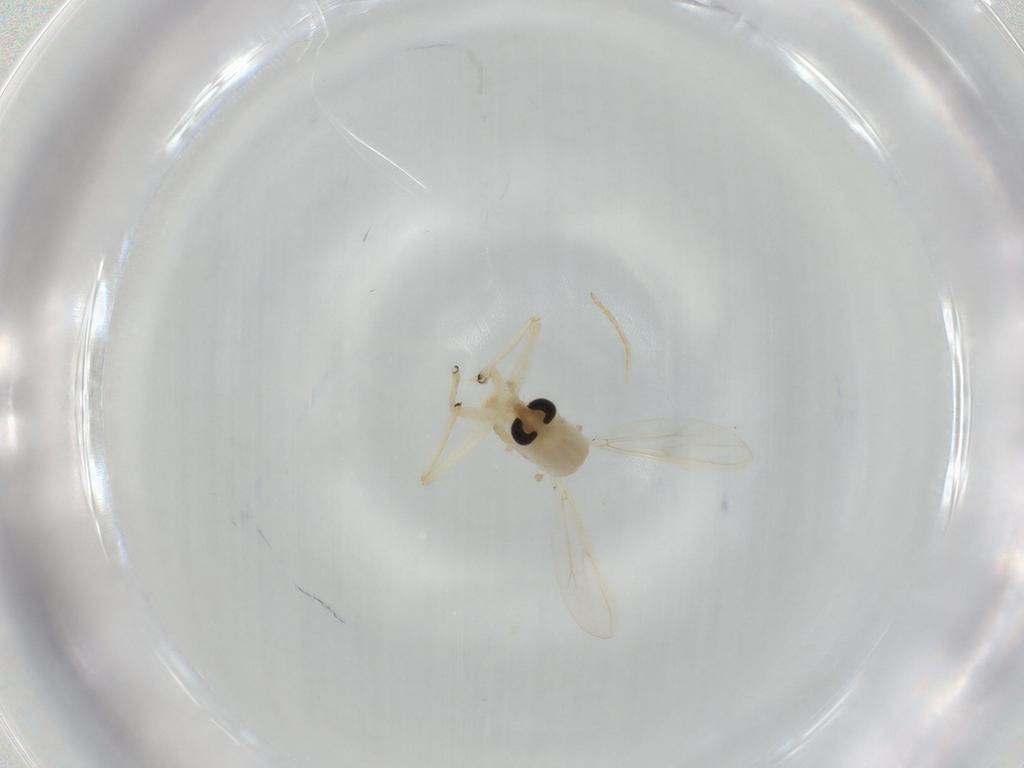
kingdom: Animalia
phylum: Arthropoda
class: Insecta
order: Diptera
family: Chironomidae
